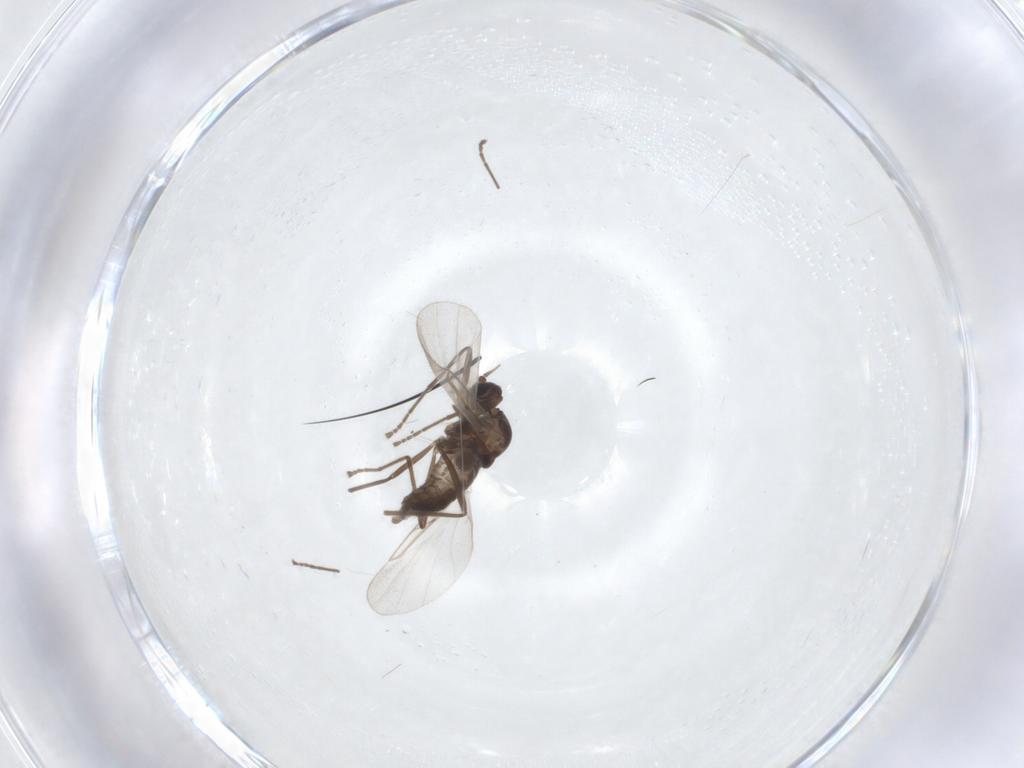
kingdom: Animalia
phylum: Arthropoda
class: Insecta
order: Diptera
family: Cecidomyiidae
